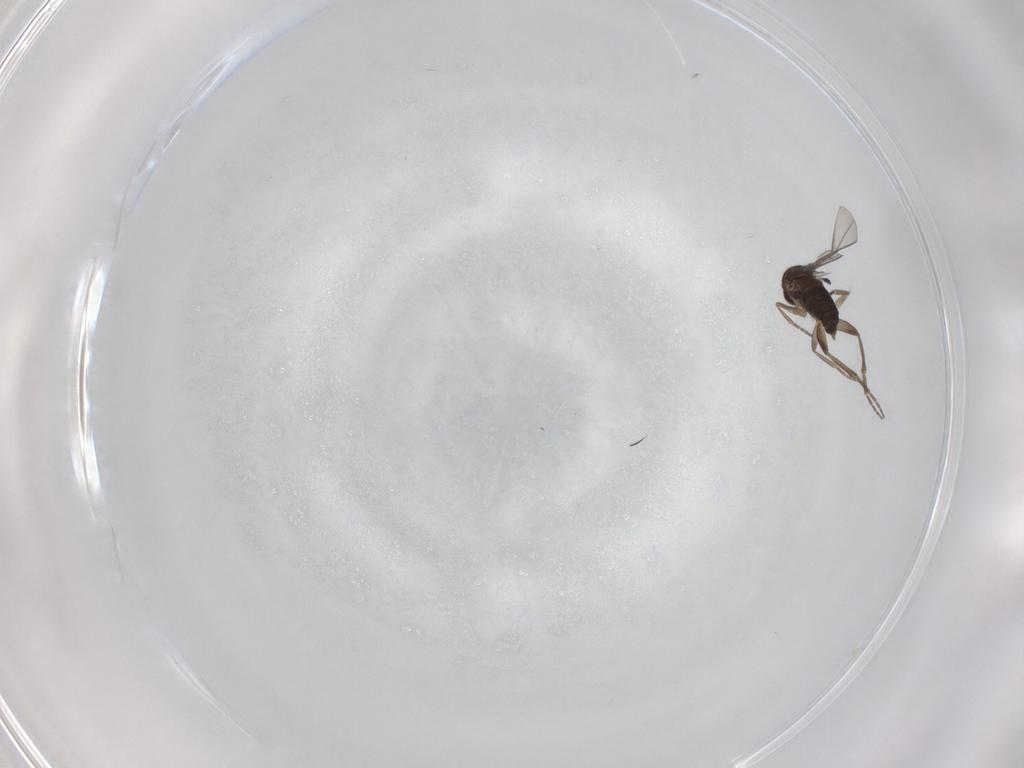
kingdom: Animalia
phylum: Arthropoda
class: Insecta
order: Diptera
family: Phoridae
